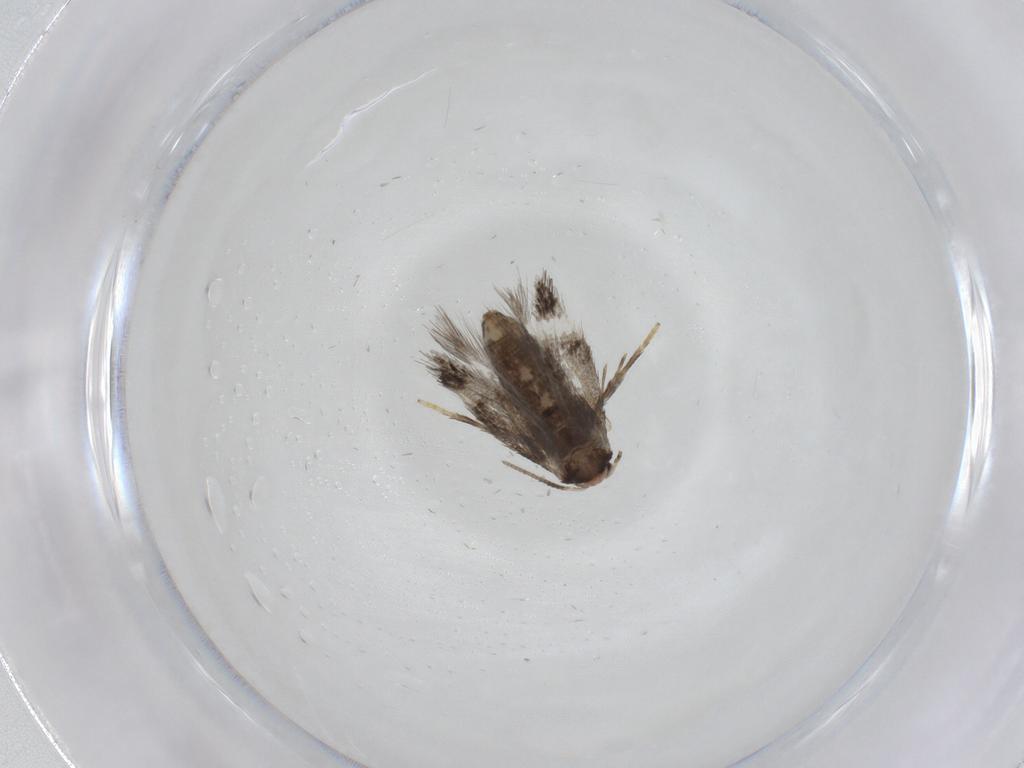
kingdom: Animalia
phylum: Arthropoda
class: Insecta
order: Lepidoptera
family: Nepticulidae
